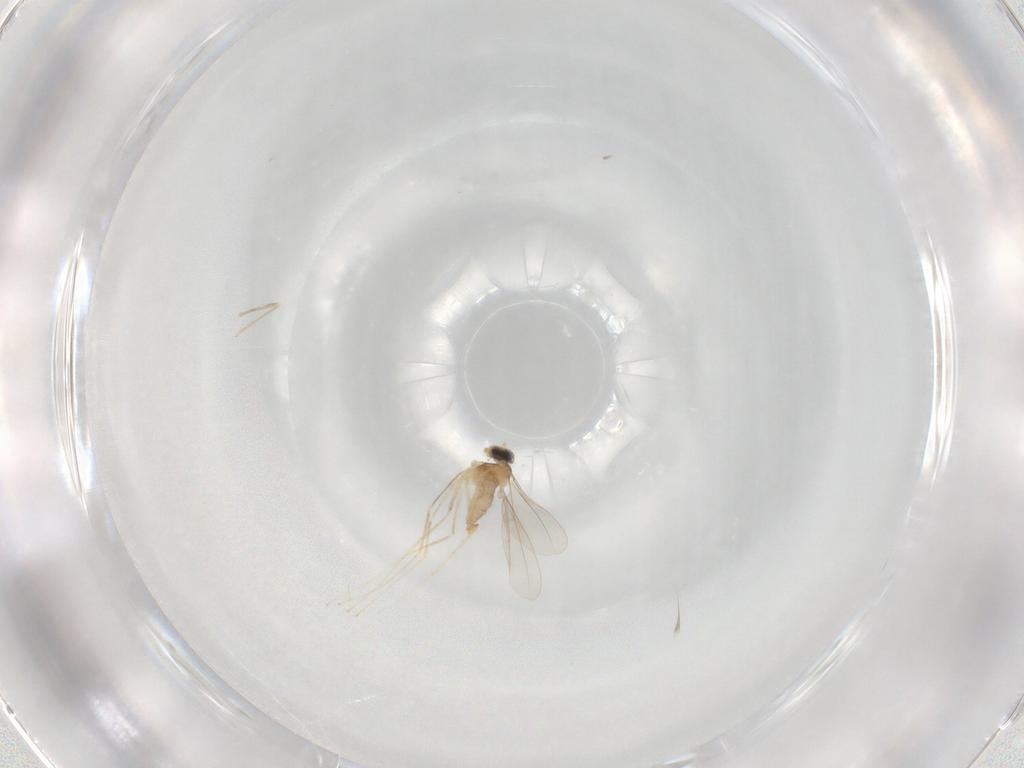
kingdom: Animalia
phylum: Arthropoda
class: Insecta
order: Diptera
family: Cecidomyiidae
